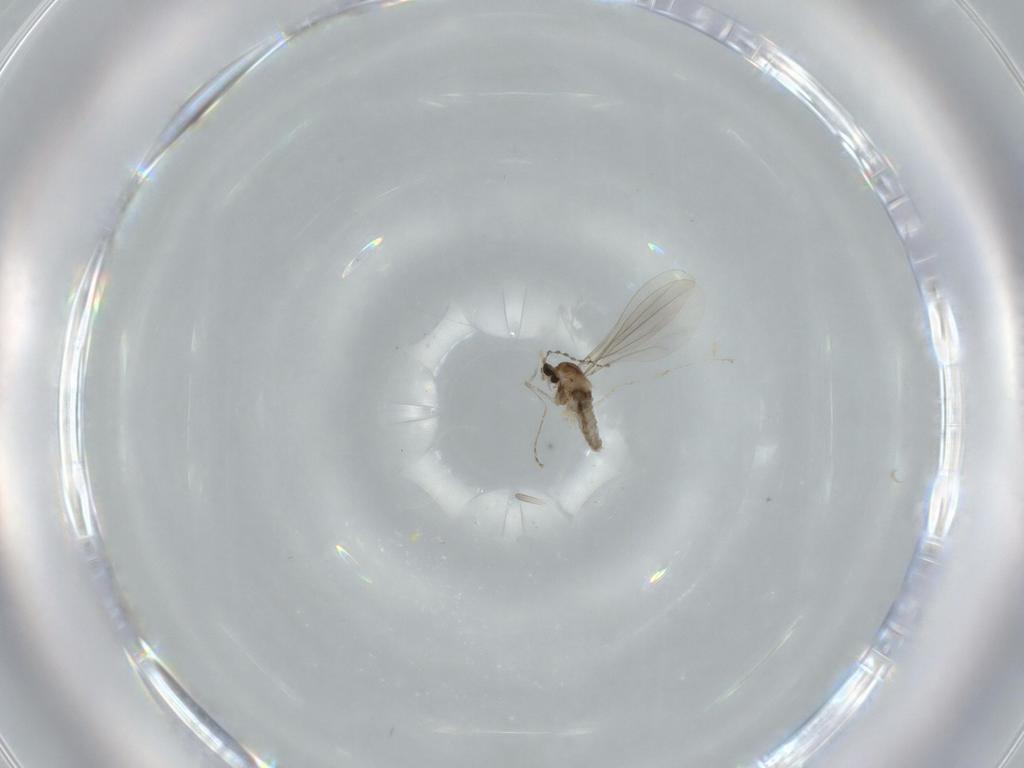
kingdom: Animalia
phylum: Arthropoda
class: Insecta
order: Diptera
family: Cecidomyiidae
